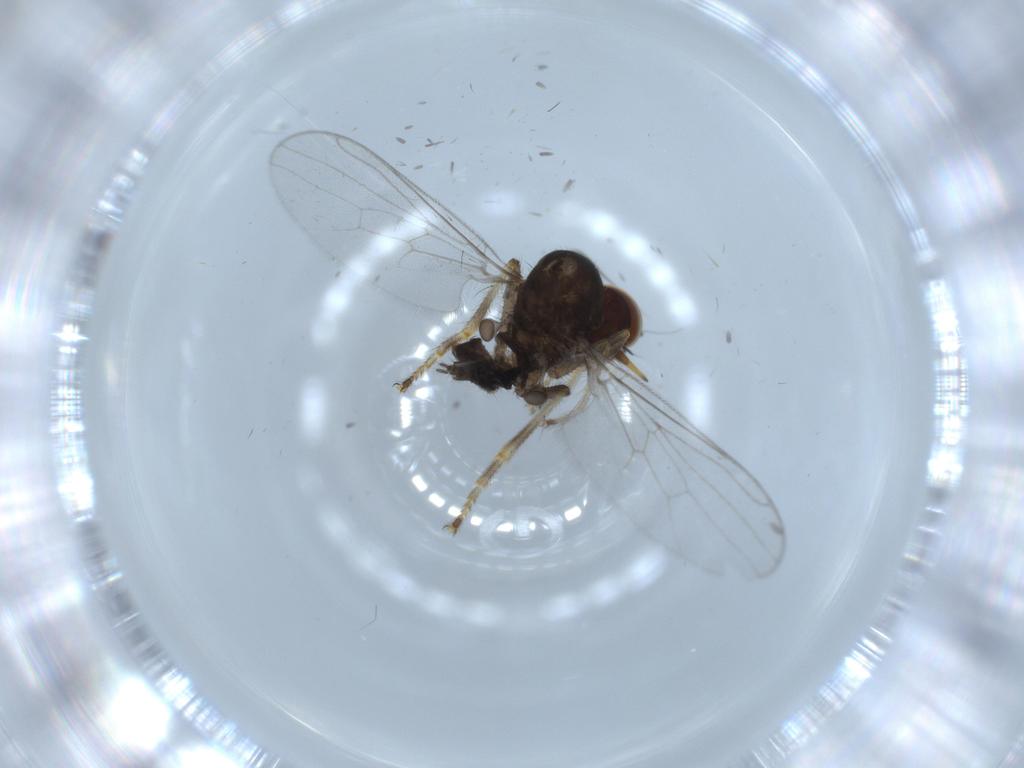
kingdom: Animalia
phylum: Arthropoda
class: Insecta
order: Diptera
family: Hybotidae
